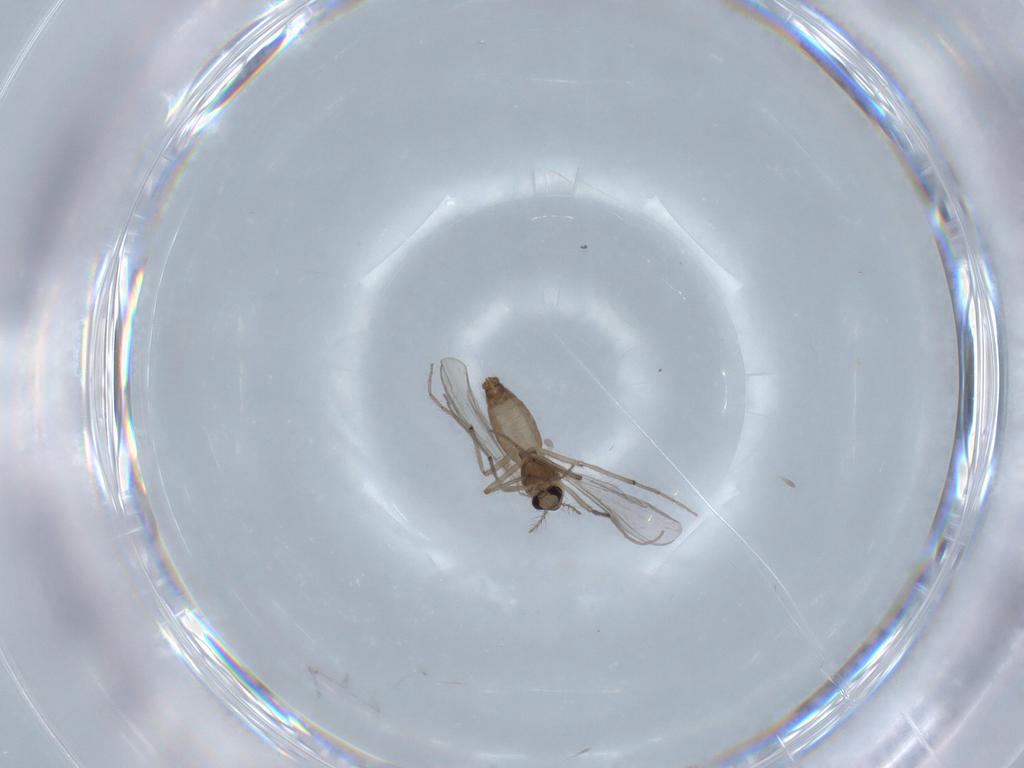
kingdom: Animalia
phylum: Arthropoda
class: Insecta
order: Diptera
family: Chironomidae
